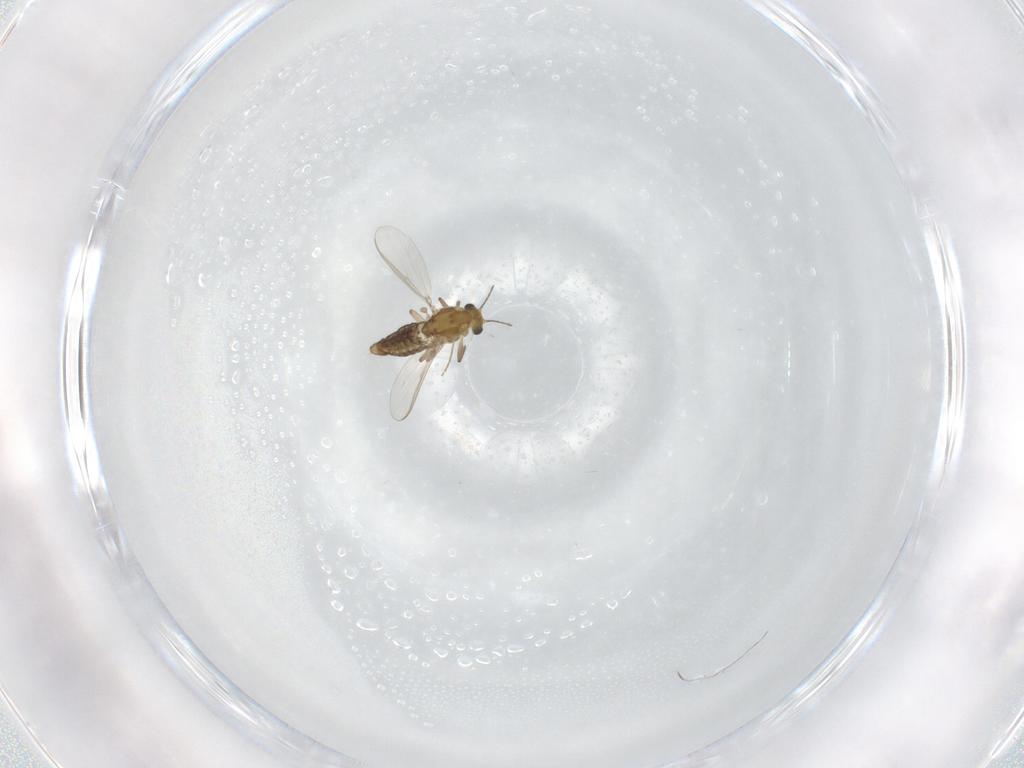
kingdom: Animalia
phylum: Arthropoda
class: Insecta
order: Diptera
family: Chironomidae
